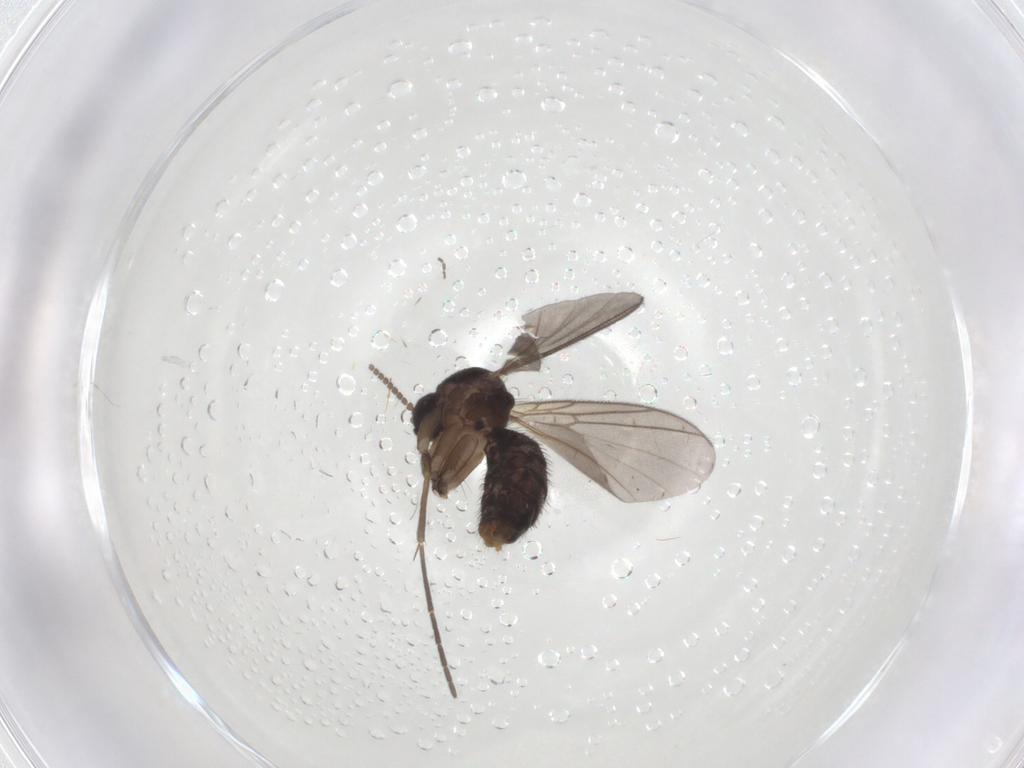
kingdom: Animalia
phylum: Arthropoda
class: Insecta
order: Diptera
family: Mycetophilidae
